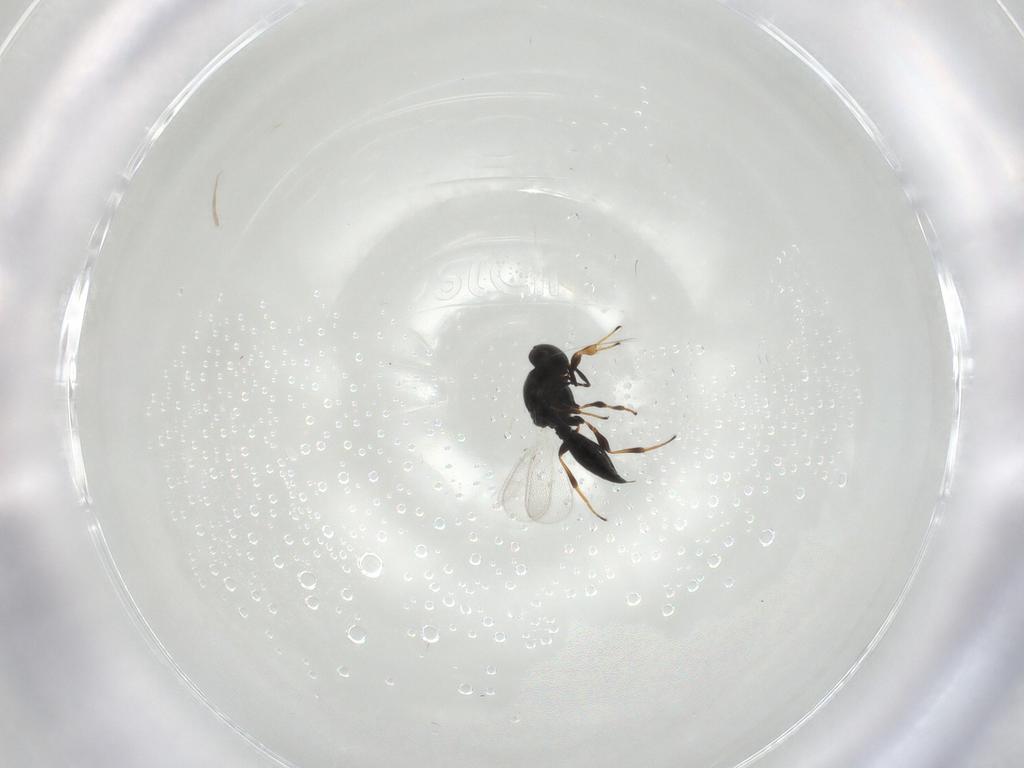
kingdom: Animalia
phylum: Arthropoda
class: Insecta
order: Hymenoptera
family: Platygastridae
